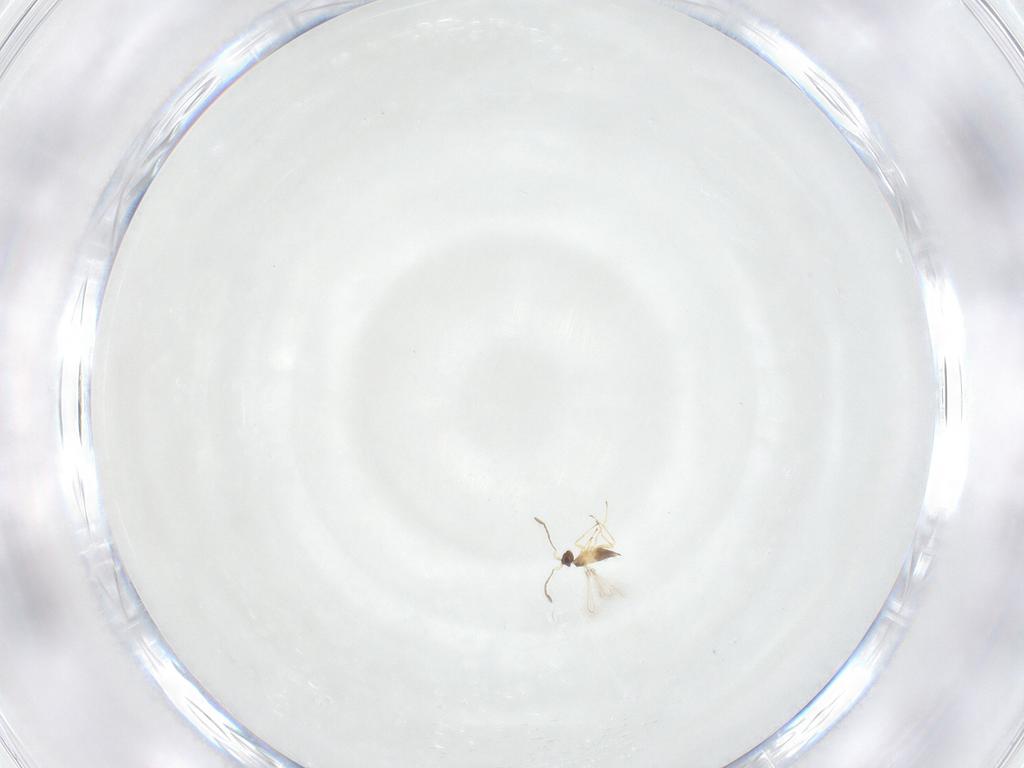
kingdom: Animalia
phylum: Arthropoda
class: Insecta
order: Hymenoptera
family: Mymaridae
